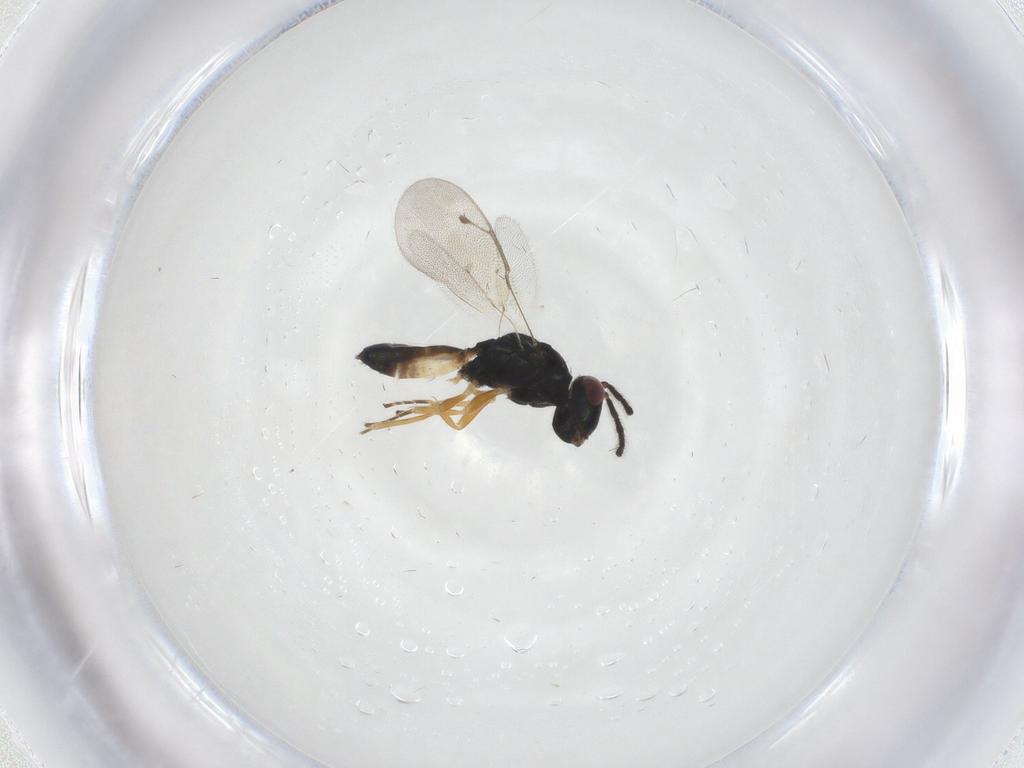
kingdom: Animalia
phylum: Arthropoda
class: Insecta
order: Hymenoptera
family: Pteromalidae
